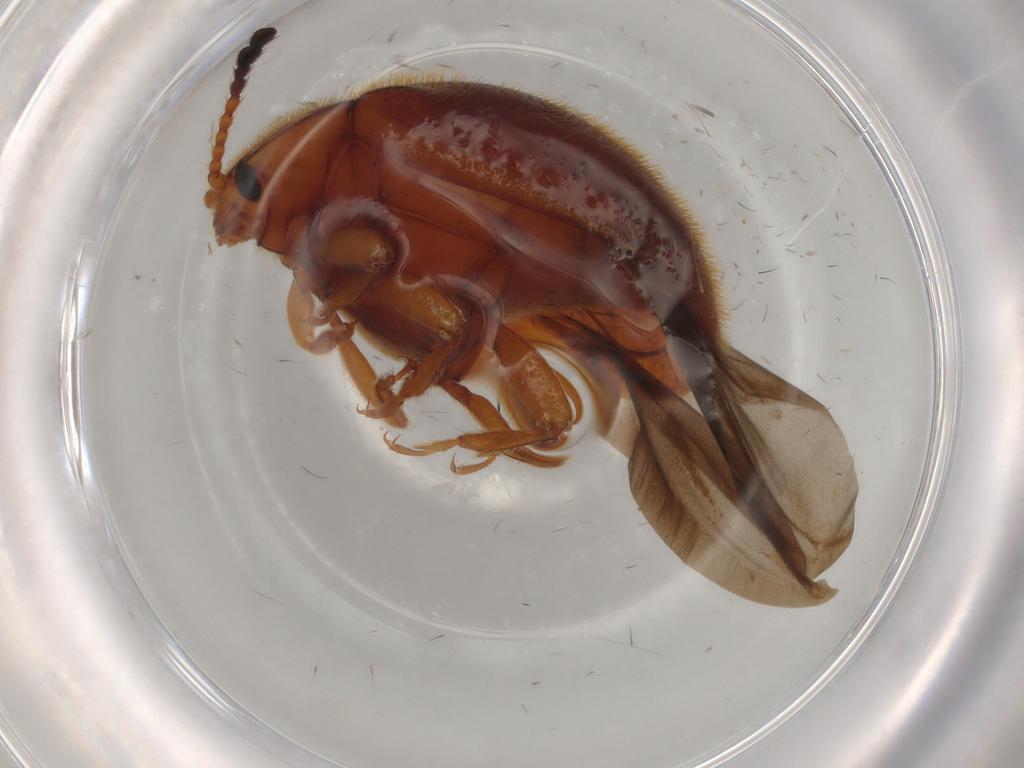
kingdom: Animalia
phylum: Arthropoda
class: Insecta
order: Coleoptera
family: Endomychidae
